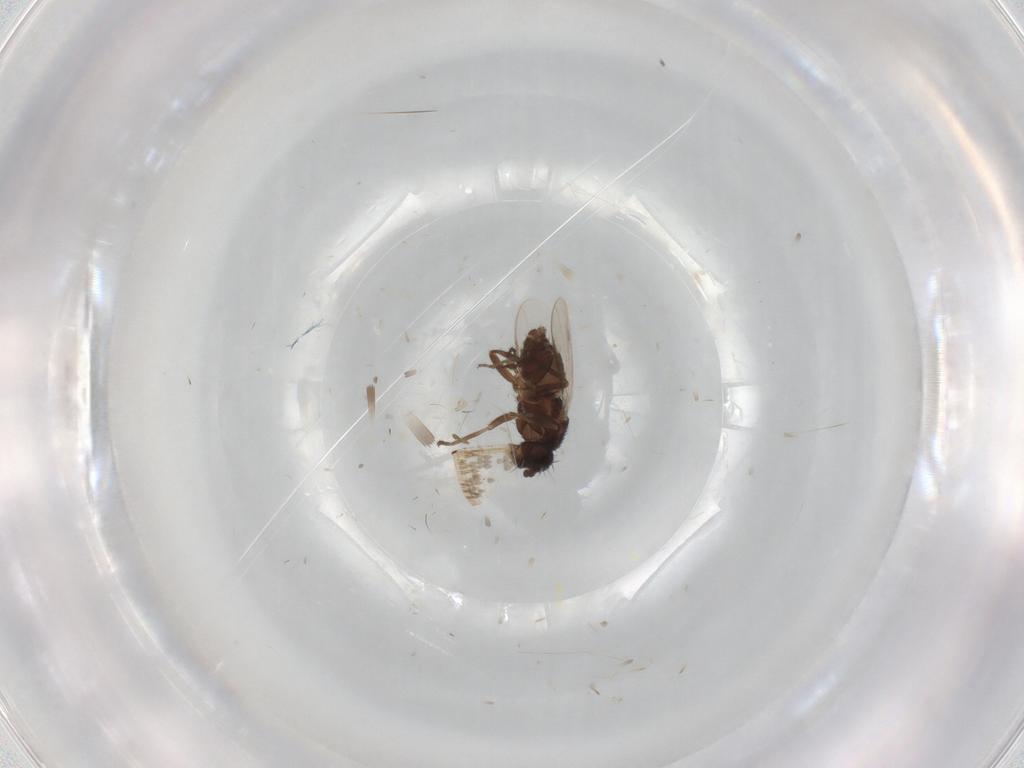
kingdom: Animalia
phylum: Arthropoda
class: Insecta
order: Diptera
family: Sphaeroceridae
